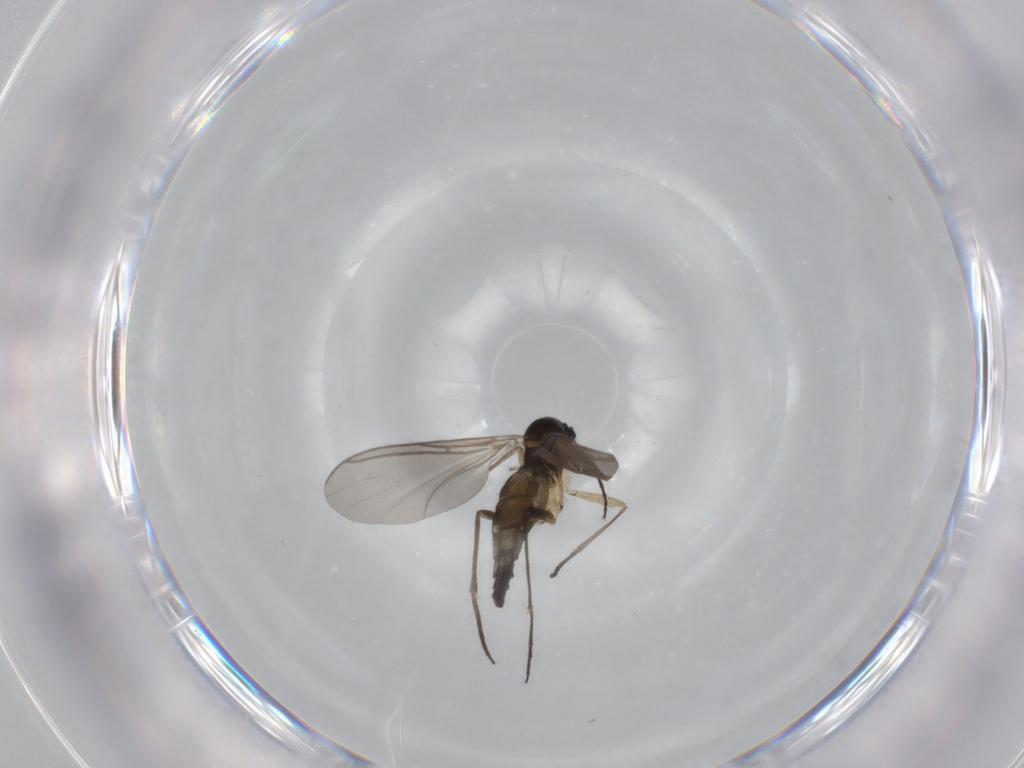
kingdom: Animalia
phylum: Arthropoda
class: Insecta
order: Diptera
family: Sciaridae
